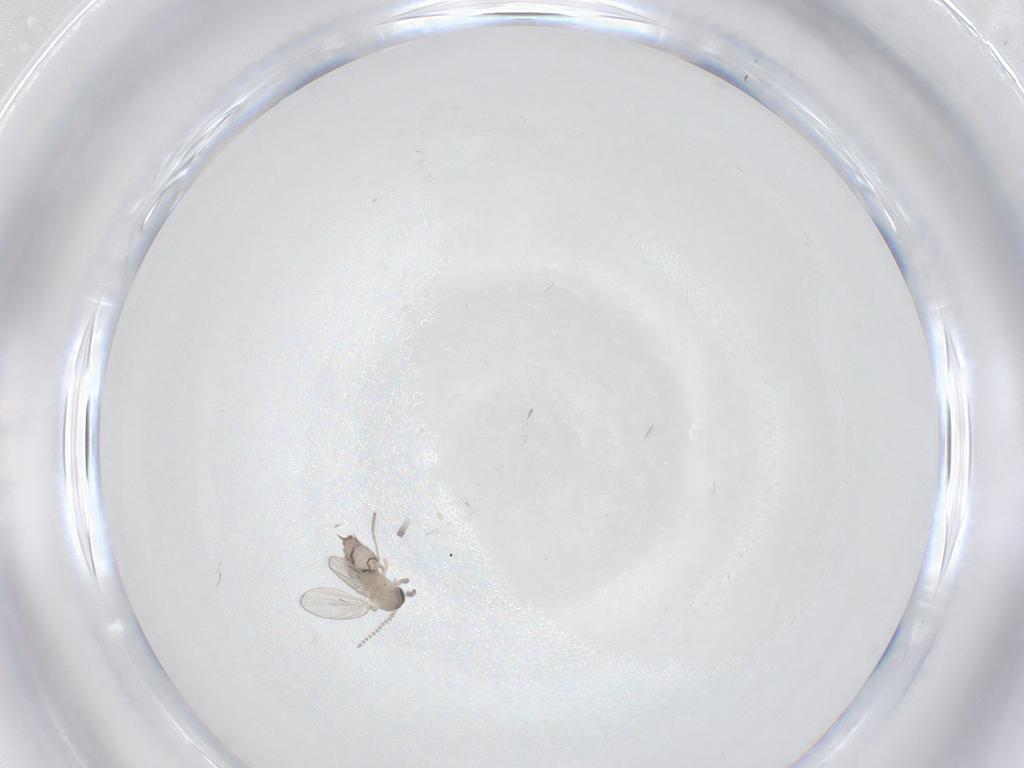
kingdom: Animalia
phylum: Arthropoda
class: Insecta
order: Diptera
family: Psychodidae
